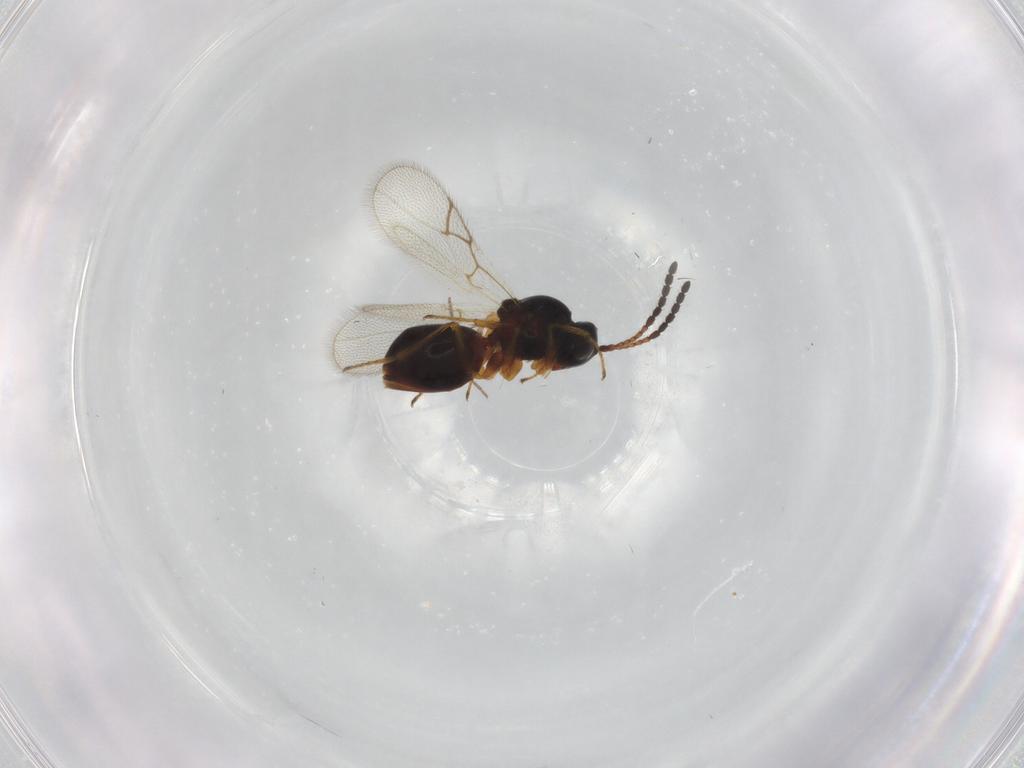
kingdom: Animalia
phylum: Arthropoda
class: Insecta
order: Hymenoptera
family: Figitidae
